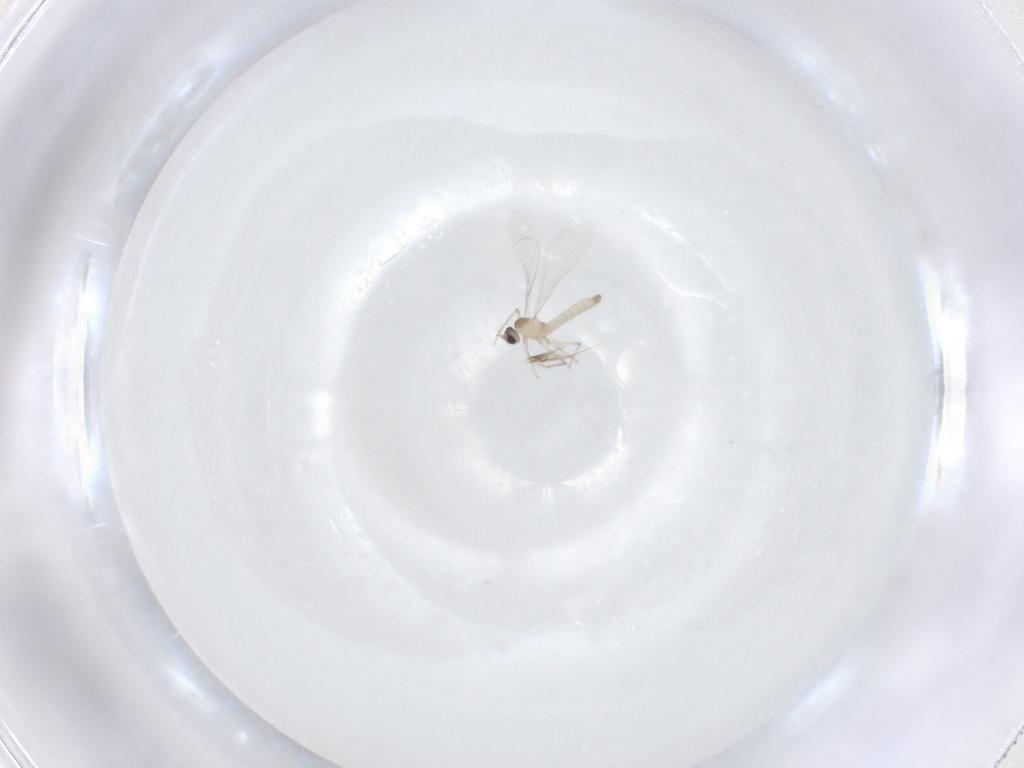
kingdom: Animalia
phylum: Arthropoda
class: Insecta
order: Diptera
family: Cecidomyiidae
